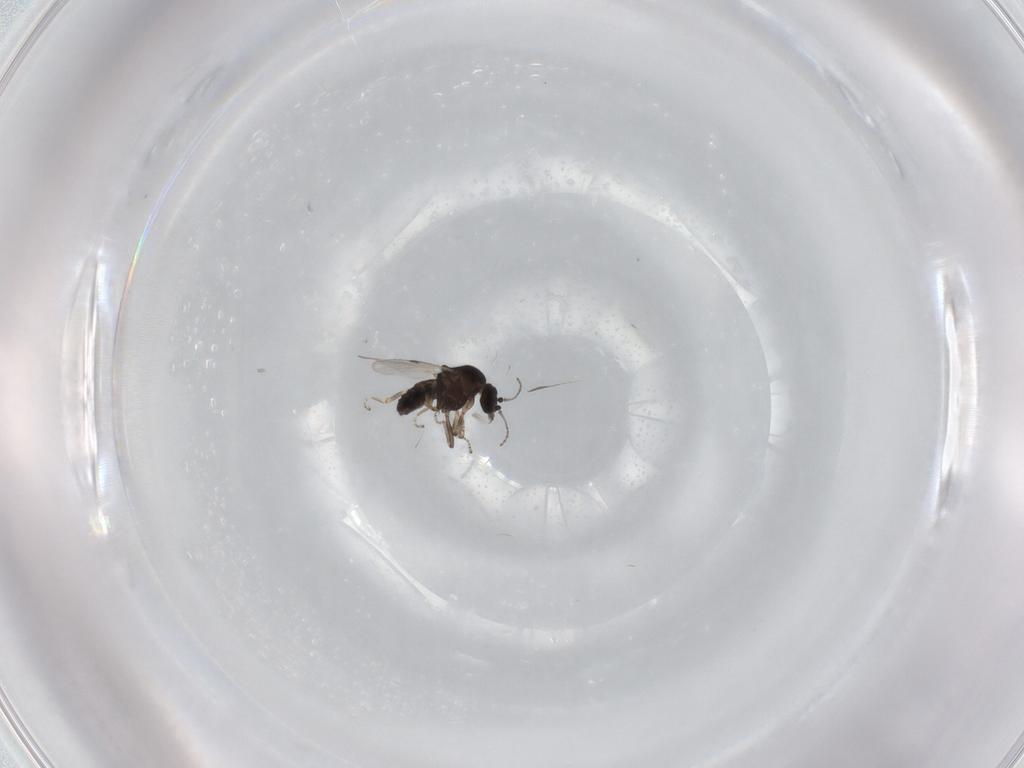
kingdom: Animalia
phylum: Arthropoda
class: Insecta
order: Diptera
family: Ceratopogonidae
